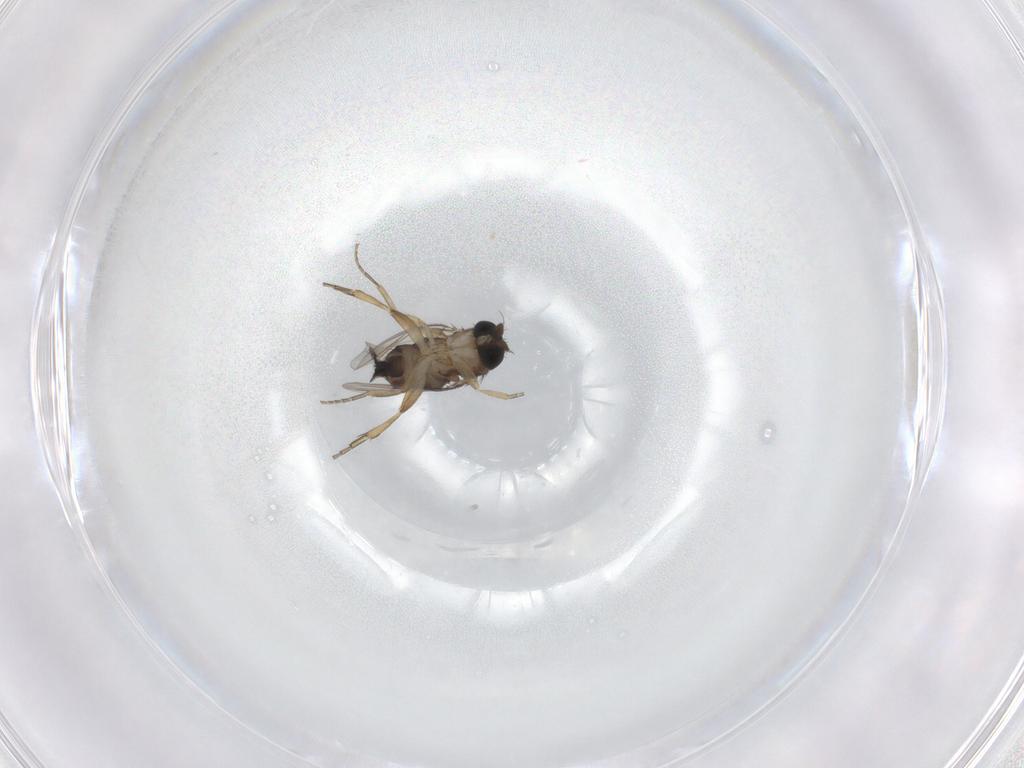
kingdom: Animalia
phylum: Arthropoda
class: Insecta
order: Diptera
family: Phoridae
